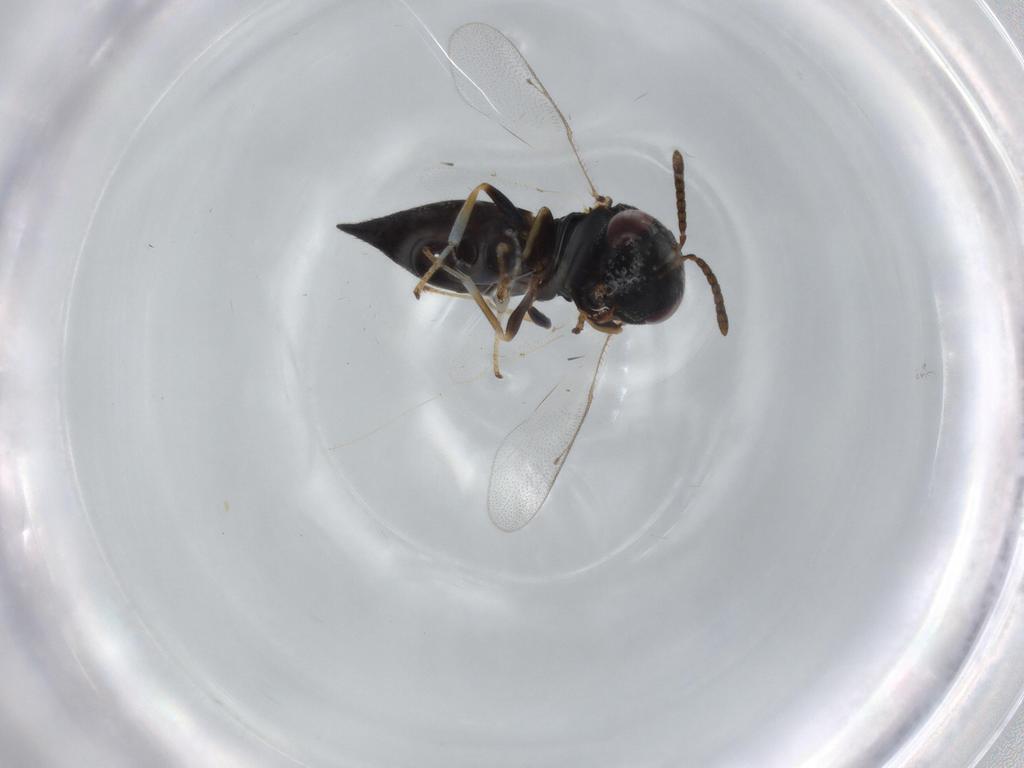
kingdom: Animalia
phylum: Arthropoda
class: Insecta
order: Hymenoptera
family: Pteromalidae
